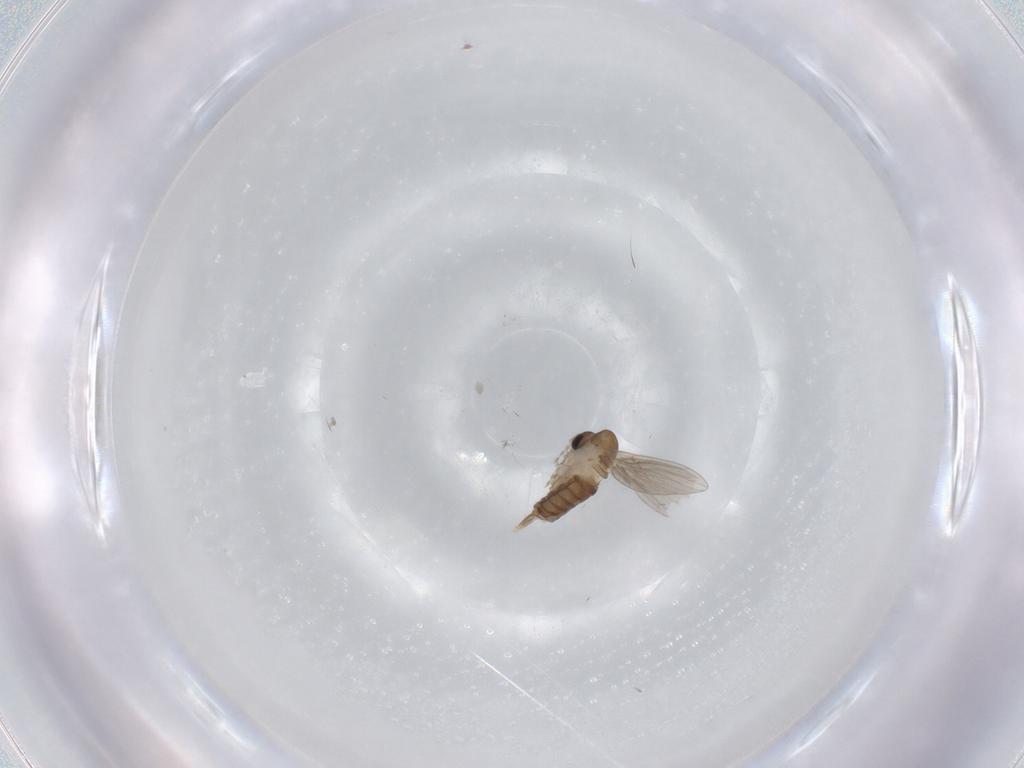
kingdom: Animalia
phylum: Arthropoda
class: Insecta
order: Diptera
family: Psychodidae
